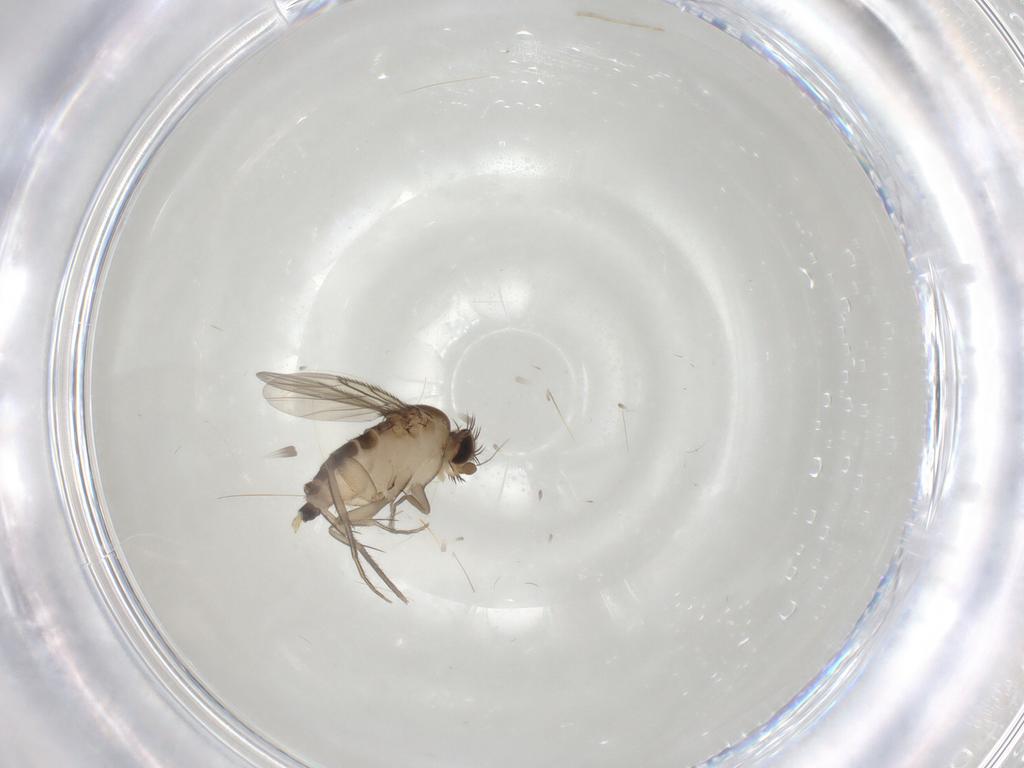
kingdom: Animalia
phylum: Arthropoda
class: Insecta
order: Diptera
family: Phoridae
